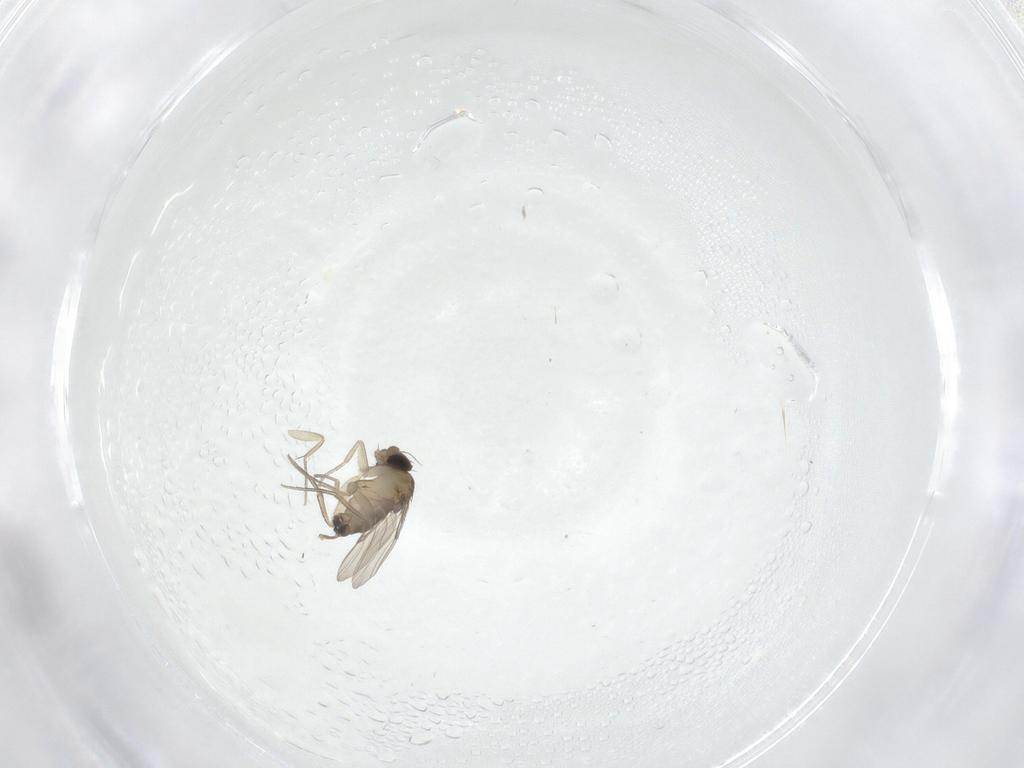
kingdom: Animalia
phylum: Arthropoda
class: Insecta
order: Diptera
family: Phoridae
